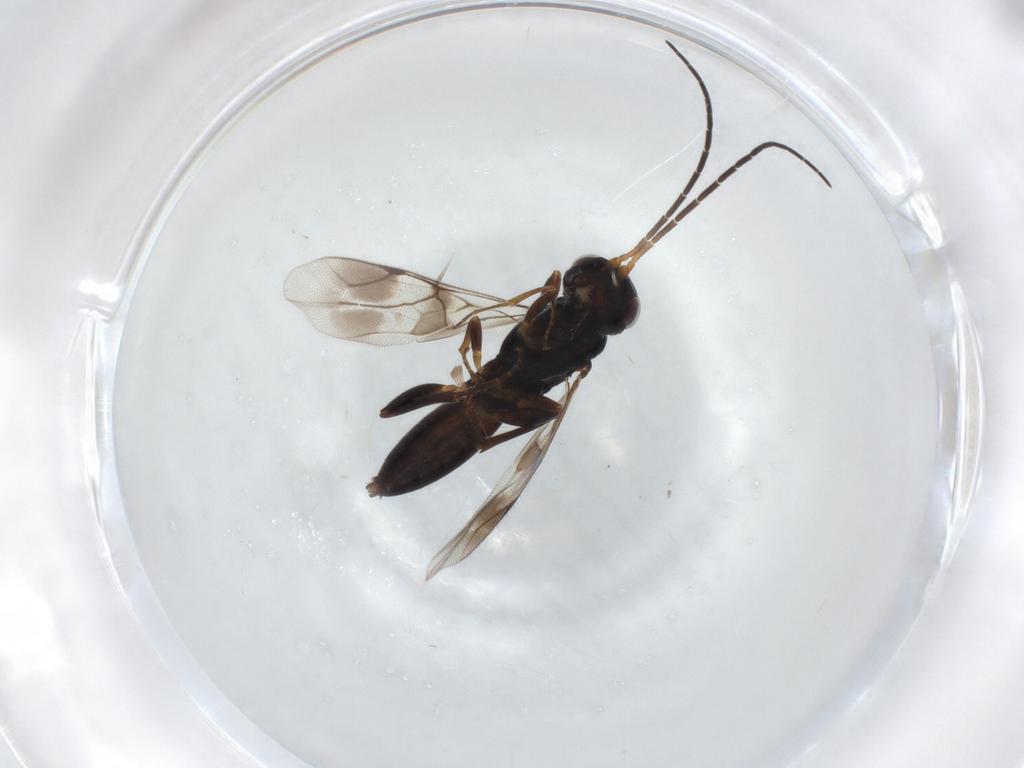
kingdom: Animalia
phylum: Arthropoda
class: Insecta
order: Hymenoptera
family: Formicidae
